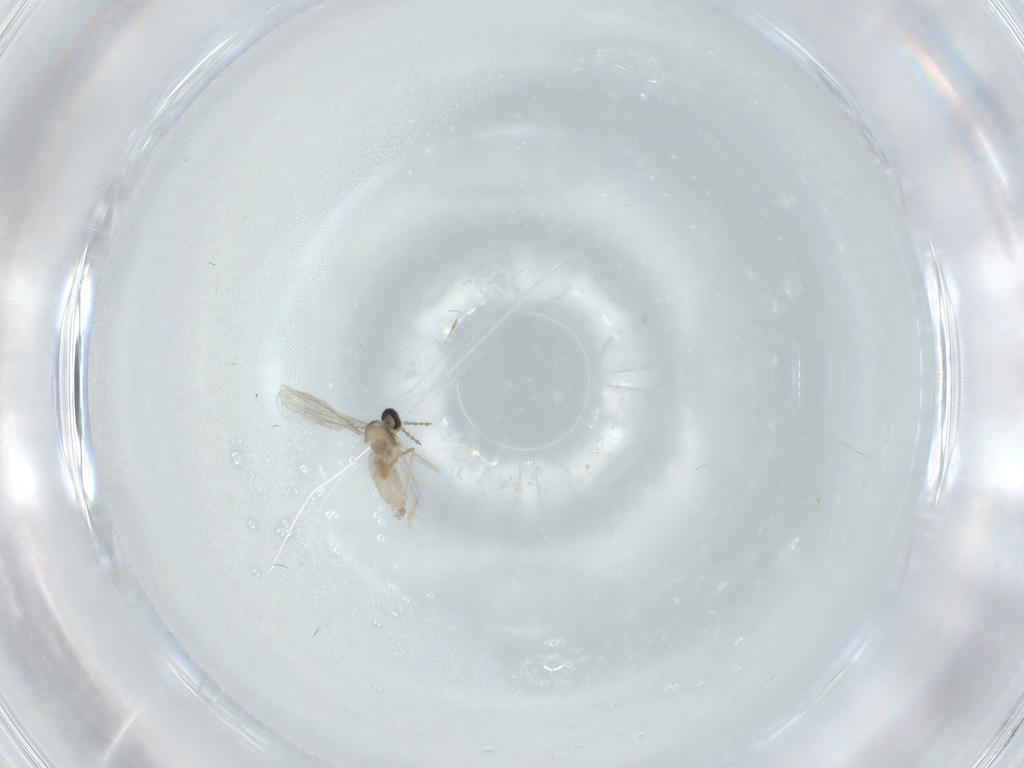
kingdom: Animalia
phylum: Arthropoda
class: Insecta
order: Diptera
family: Cecidomyiidae
